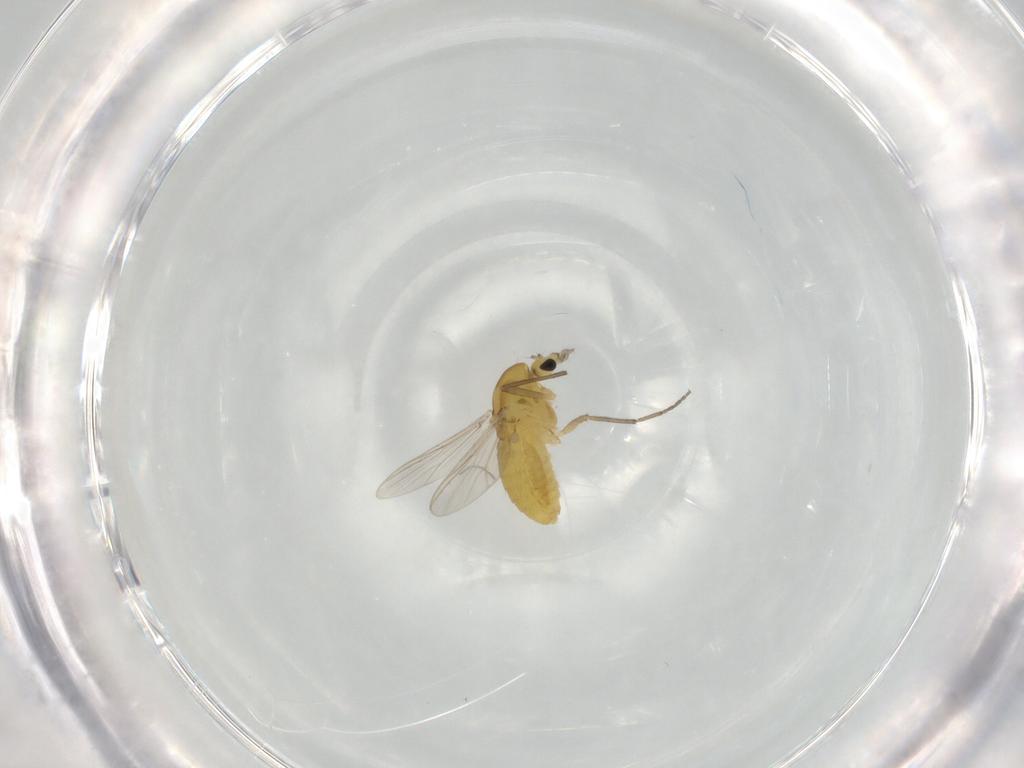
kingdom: Animalia
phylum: Arthropoda
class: Insecta
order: Diptera
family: Chironomidae
